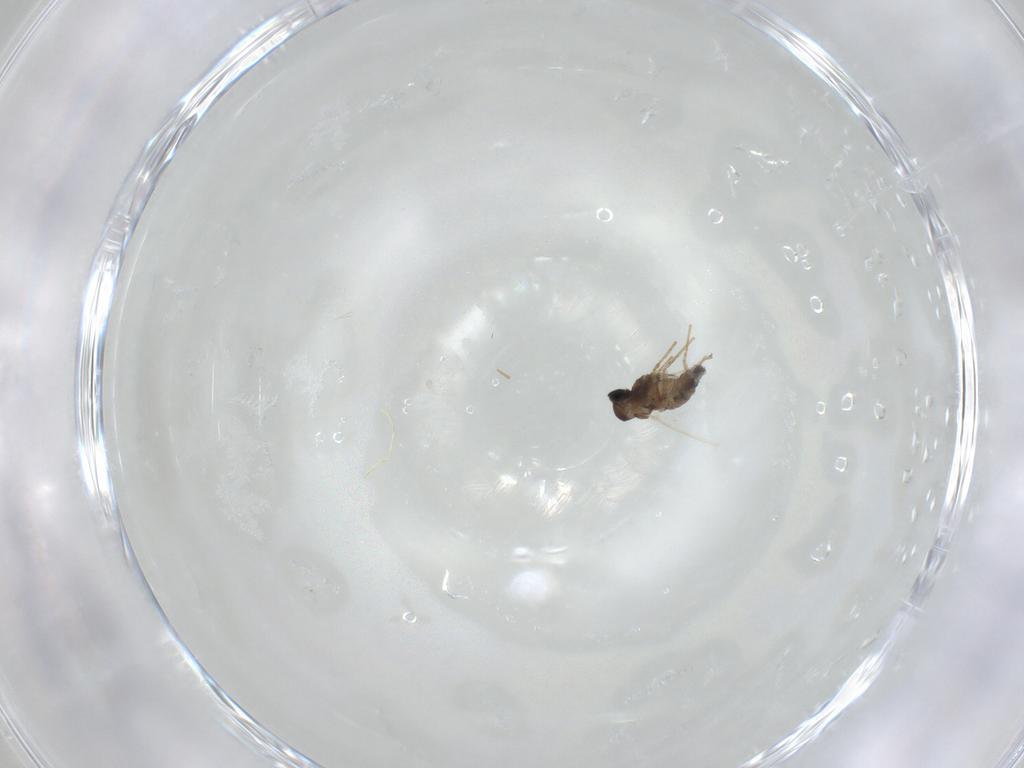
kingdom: Animalia
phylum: Arthropoda
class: Insecta
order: Diptera
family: Cecidomyiidae
